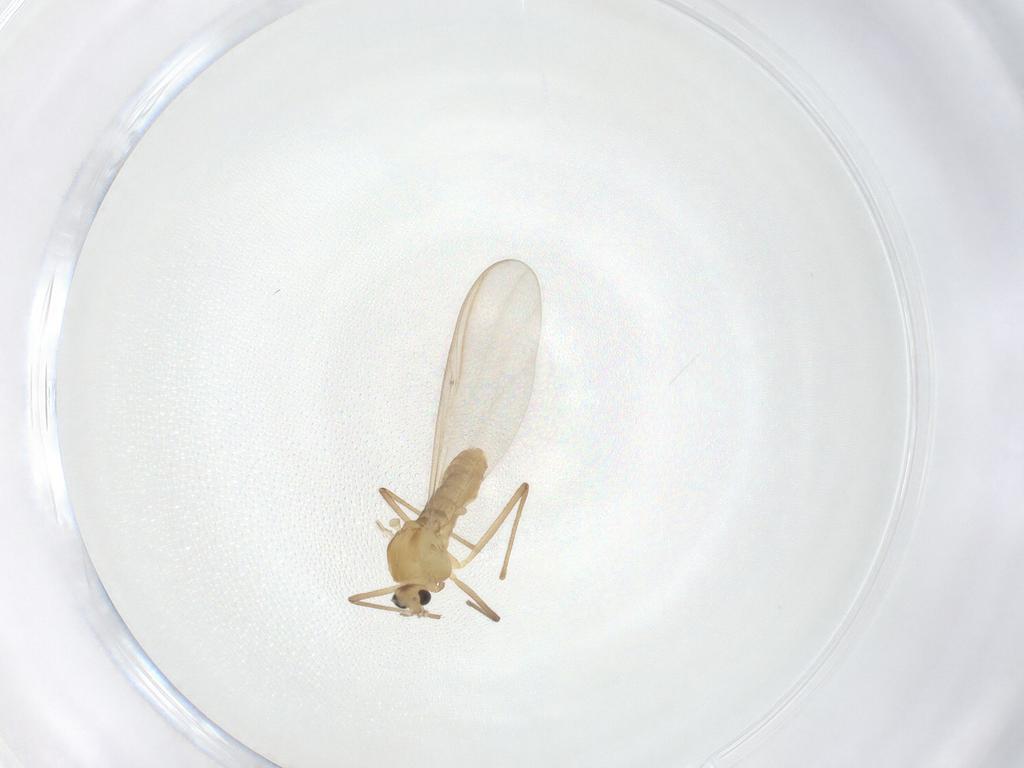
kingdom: Animalia
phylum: Arthropoda
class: Insecta
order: Diptera
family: Chironomidae
